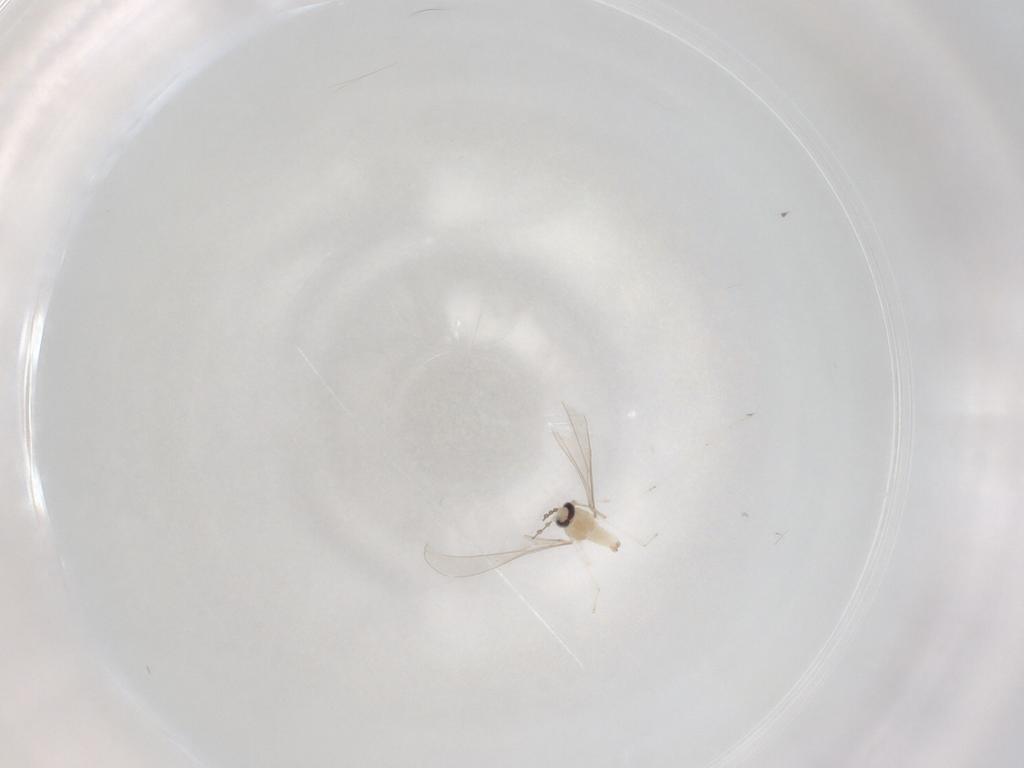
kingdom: Animalia
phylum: Arthropoda
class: Insecta
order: Diptera
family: Cecidomyiidae
